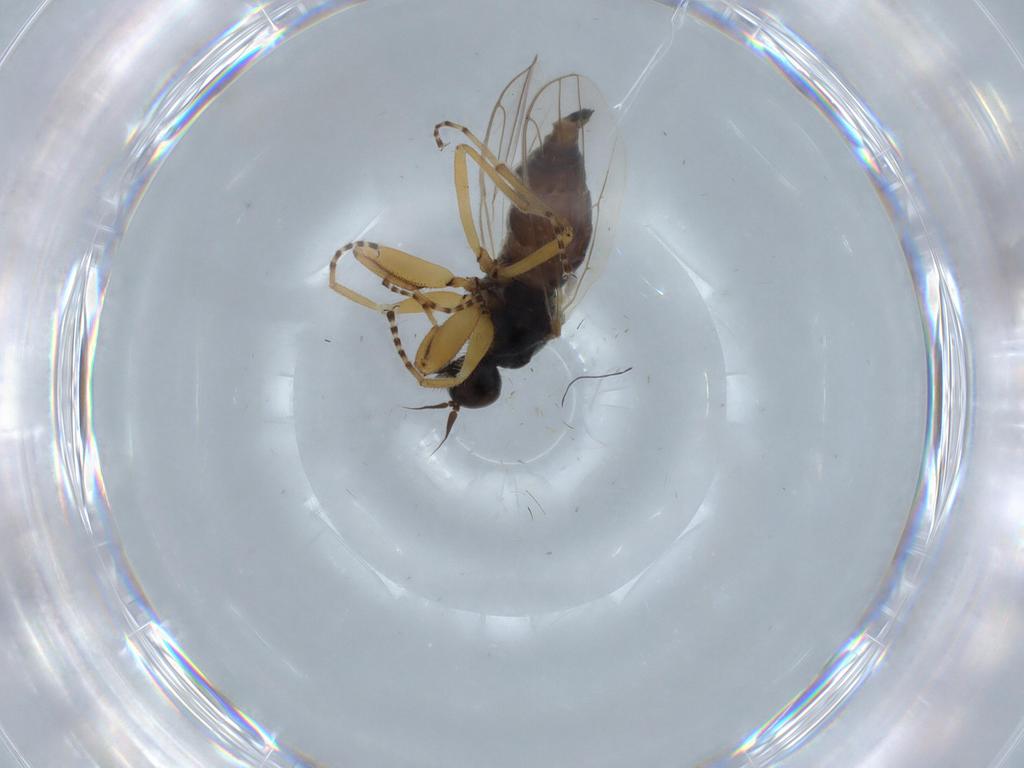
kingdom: Animalia
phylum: Arthropoda
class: Insecta
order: Diptera
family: Hybotidae
